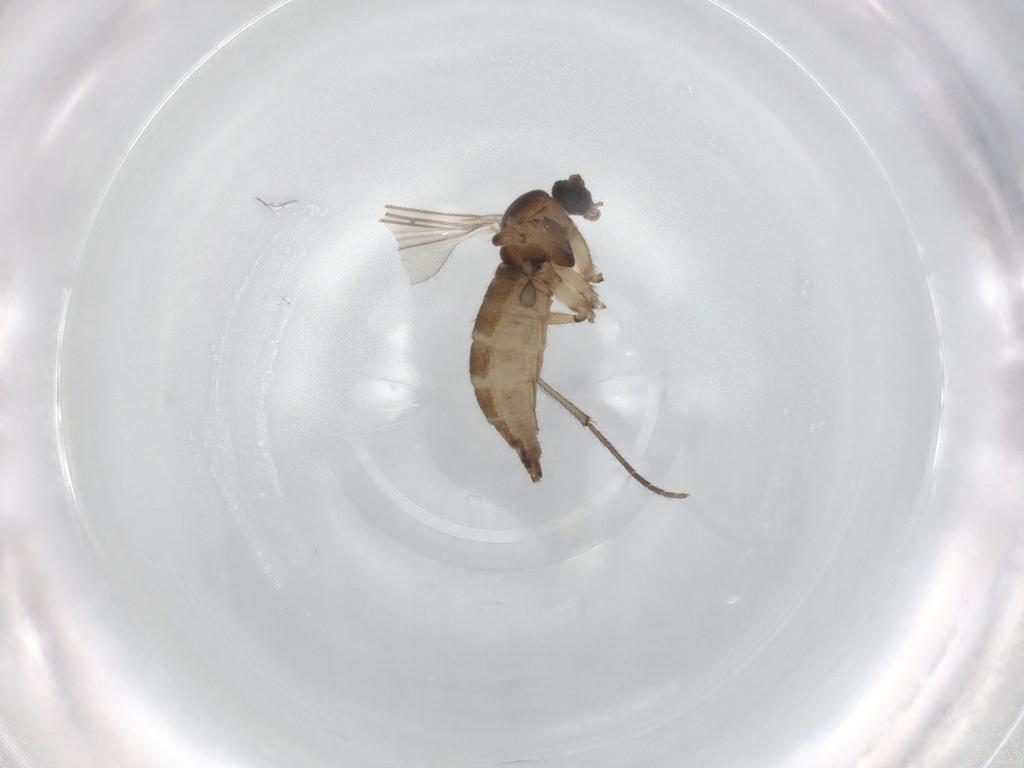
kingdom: Animalia
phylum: Arthropoda
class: Insecta
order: Diptera
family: Sciaridae
